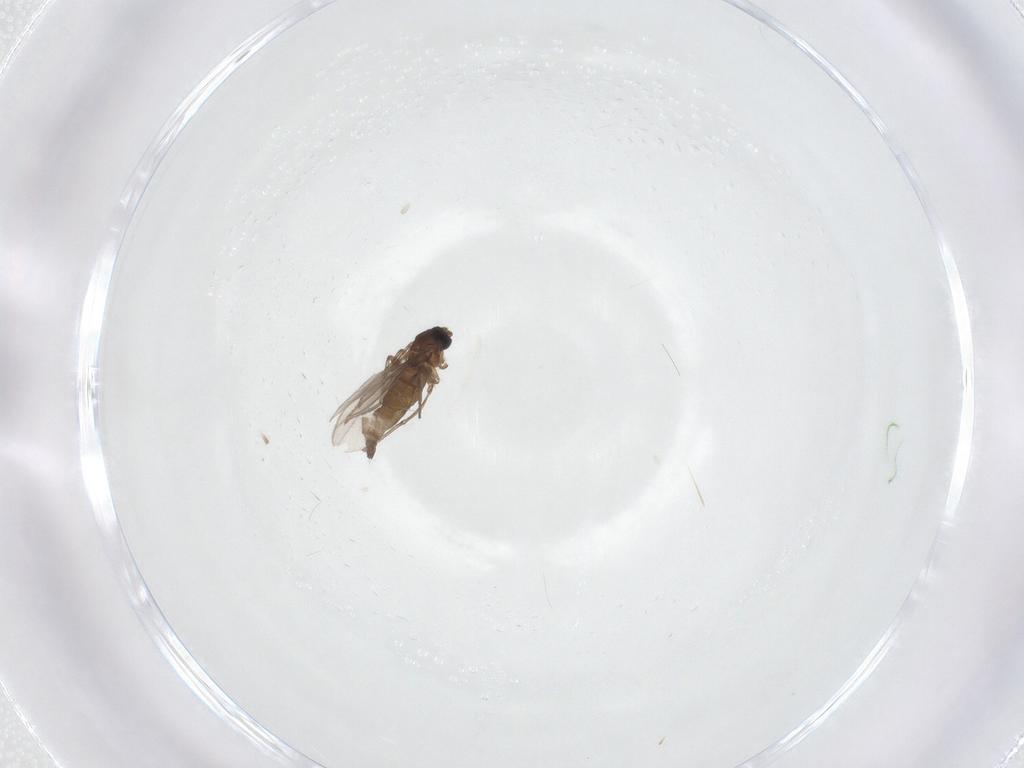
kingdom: Animalia
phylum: Arthropoda
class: Insecta
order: Diptera
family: Sciaridae
